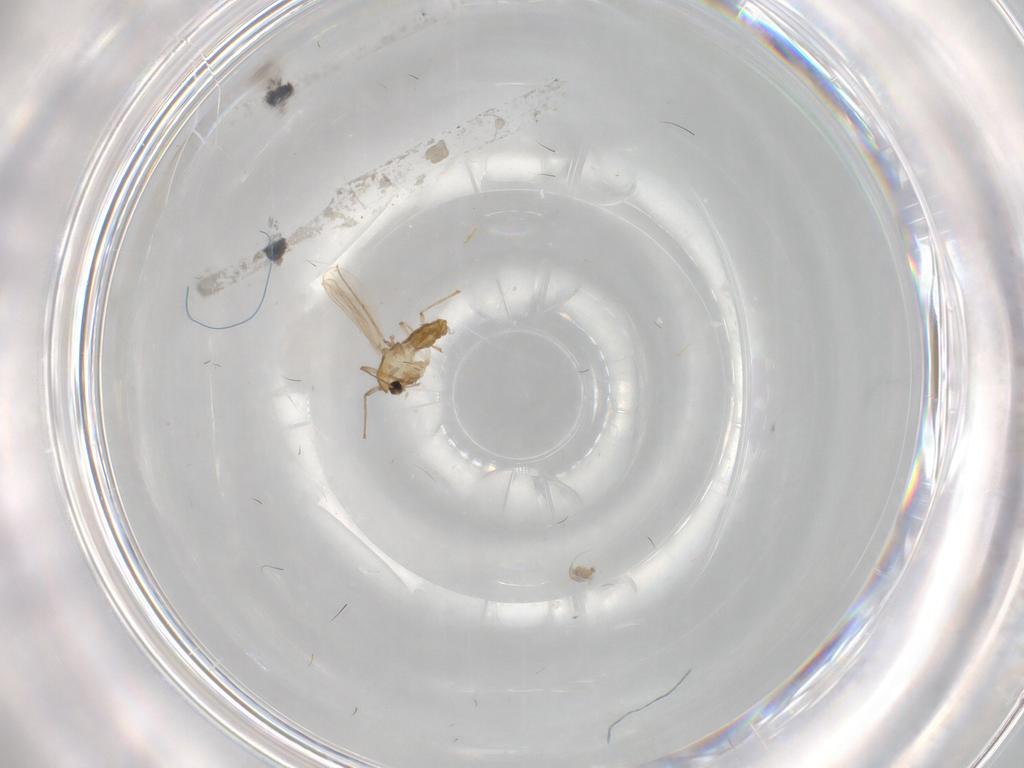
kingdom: Animalia
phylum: Arthropoda
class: Insecta
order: Diptera
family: Chironomidae
